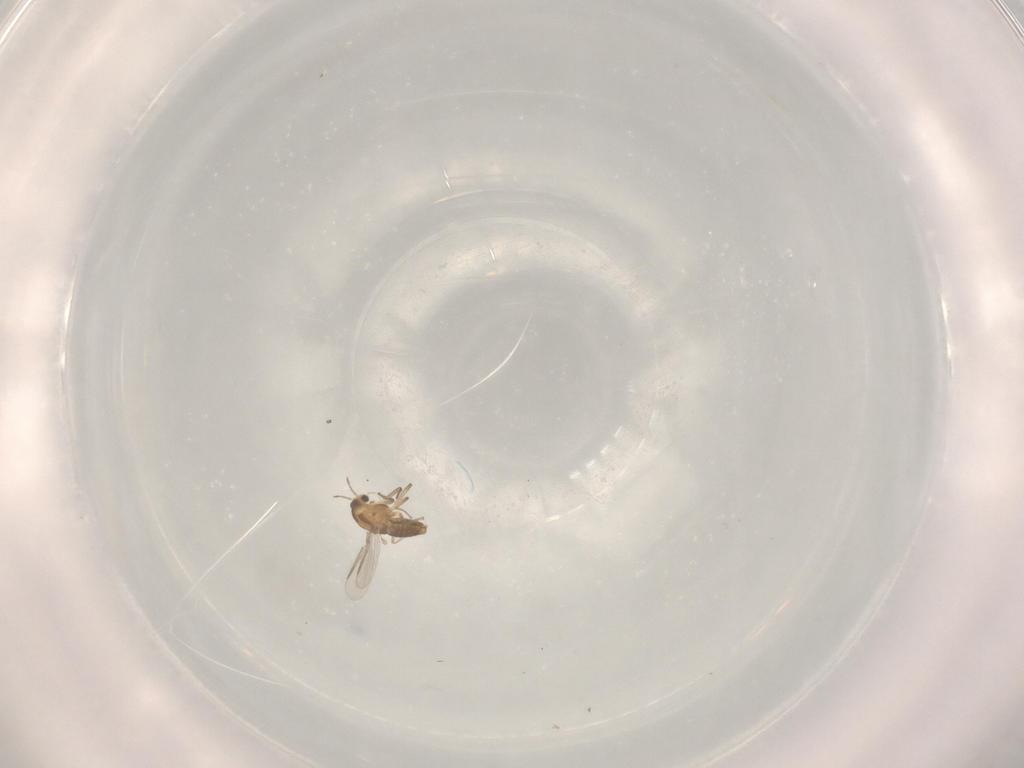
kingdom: Animalia
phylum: Arthropoda
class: Insecta
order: Diptera
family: Chironomidae
